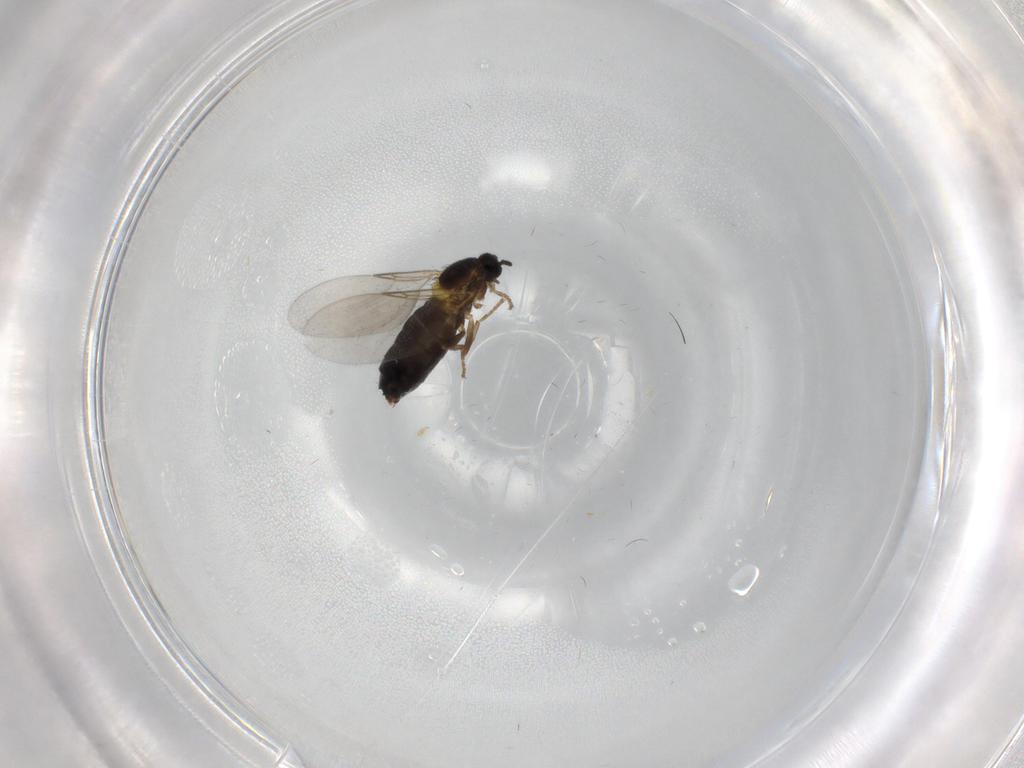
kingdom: Animalia
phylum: Arthropoda
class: Insecta
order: Diptera
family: Scatopsidae
